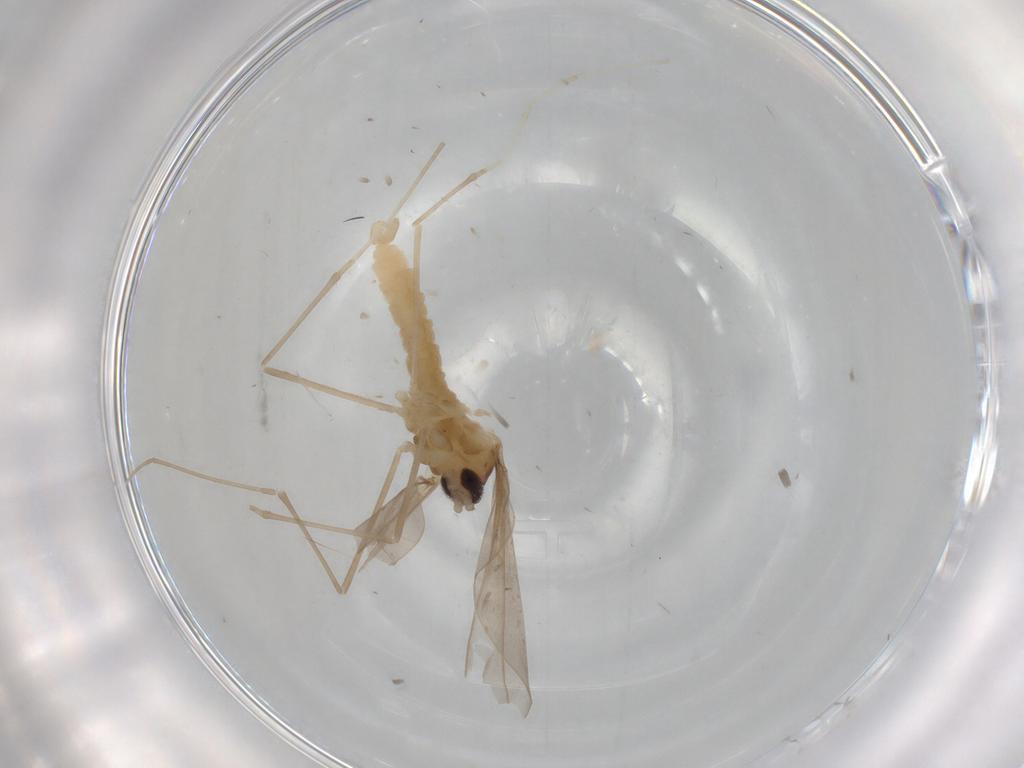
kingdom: Animalia
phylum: Arthropoda
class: Insecta
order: Diptera
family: Cecidomyiidae
